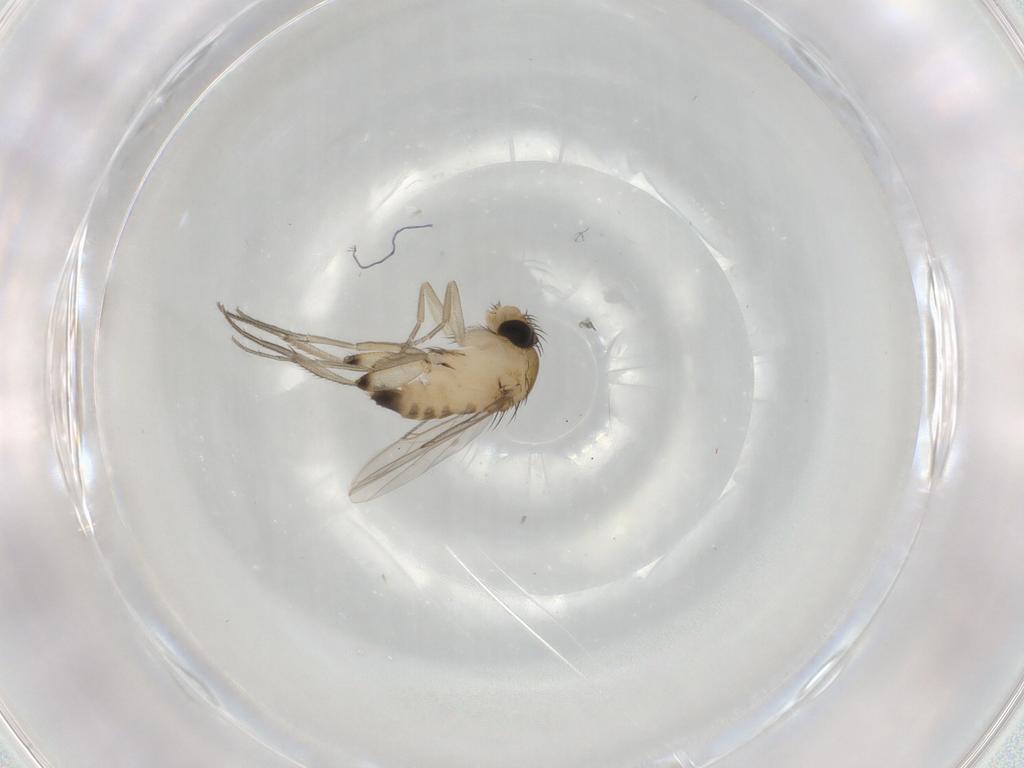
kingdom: Animalia
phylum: Arthropoda
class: Insecta
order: Diptera
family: Phoridae
